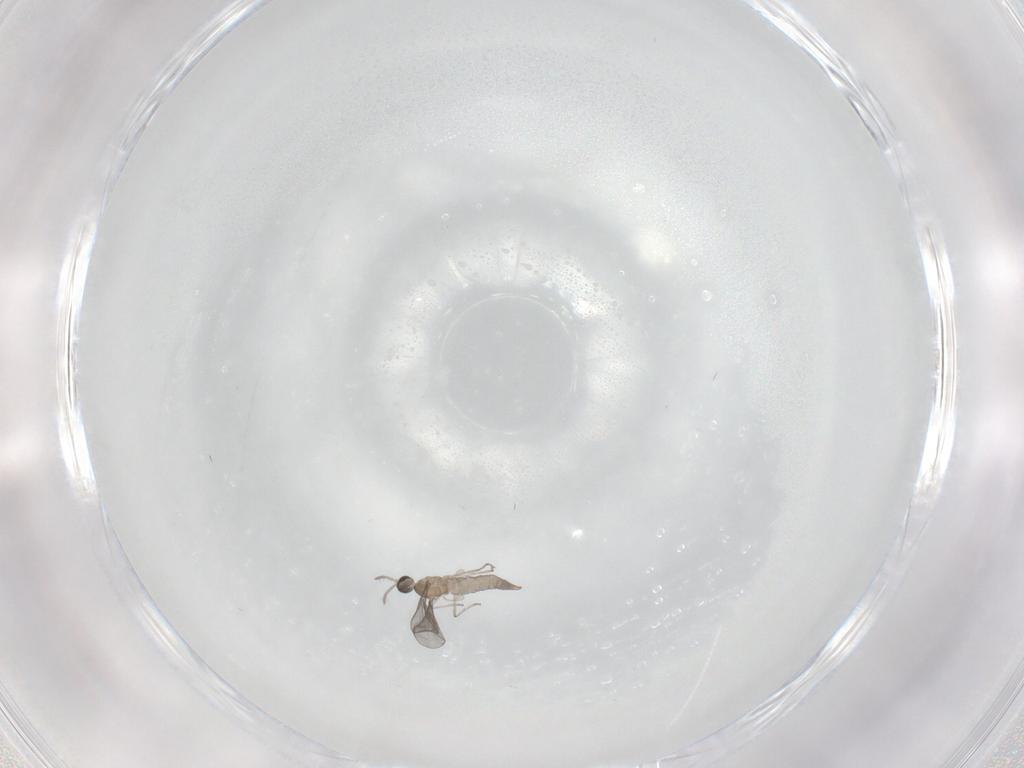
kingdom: Animalia
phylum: Arthropoda
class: Insecta
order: Diptera
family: Cecidomyiidae
